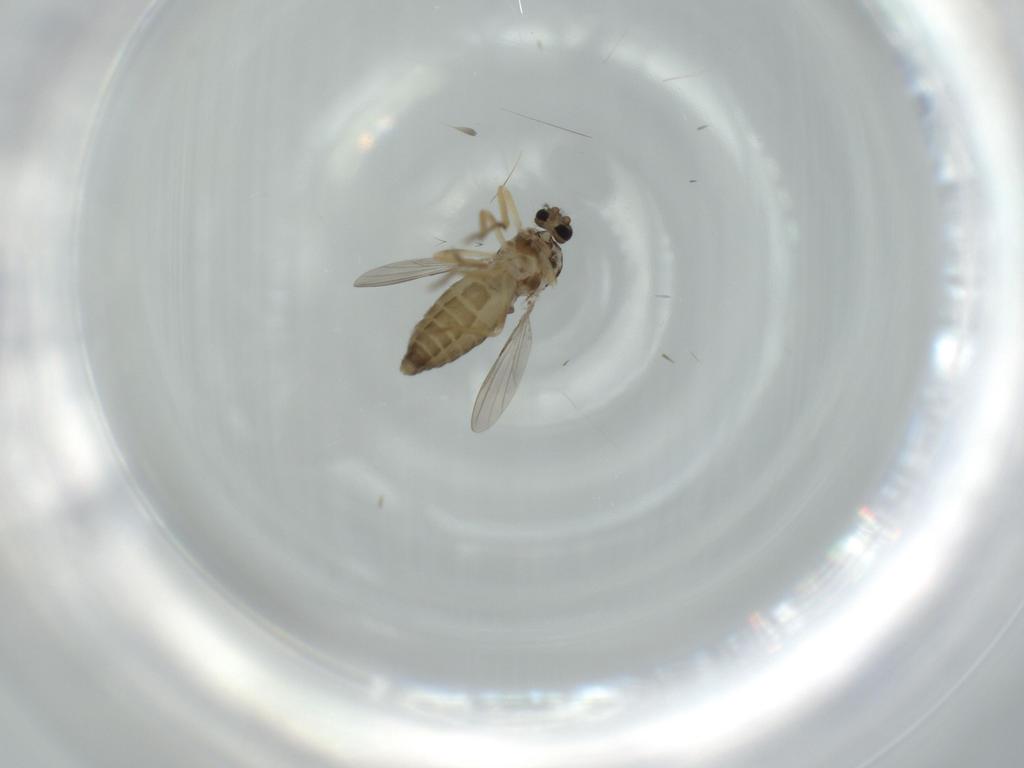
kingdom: Animalia
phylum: Arthropoda
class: Insecta
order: Diptera
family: Ceratopogonidae
